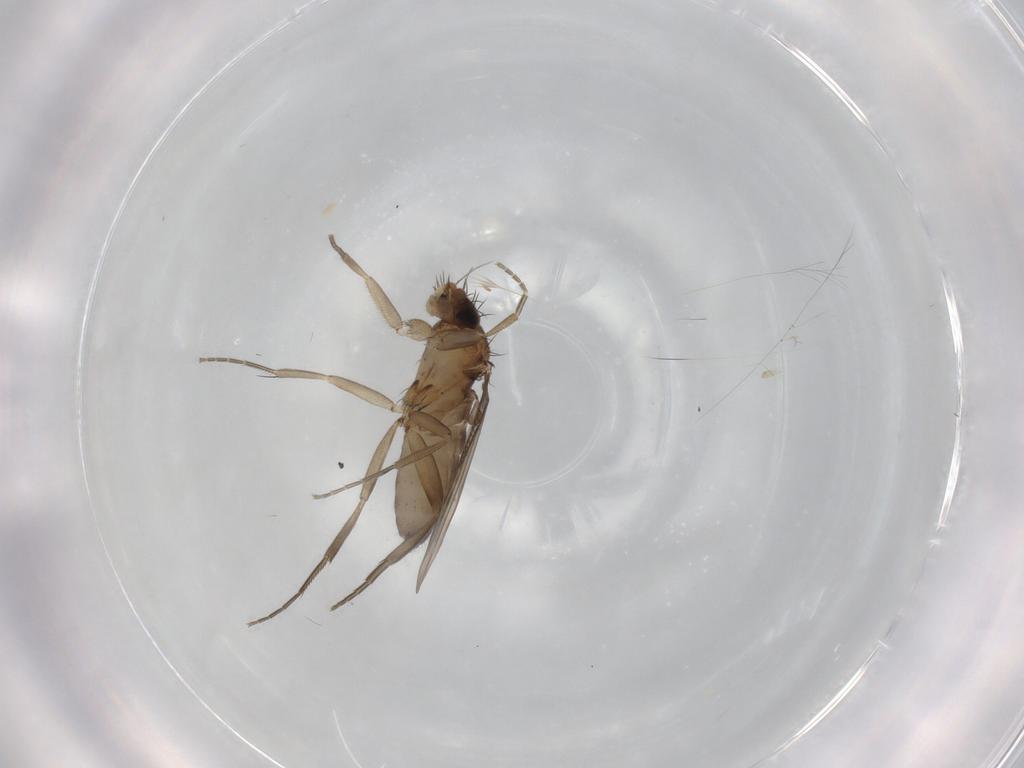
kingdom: Animalia
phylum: Arthropoda
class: Insecta
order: Diptera
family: Phoridae
